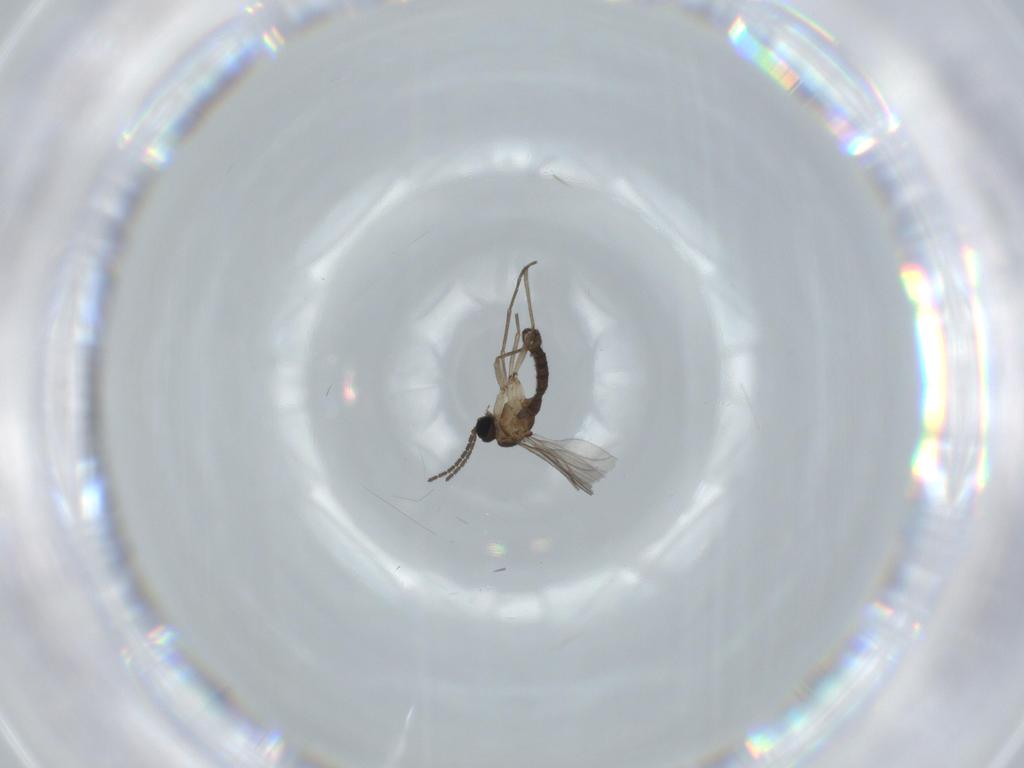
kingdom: Animalia
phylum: Arthropoda
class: Insecta
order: Diptera
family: Sciaridae
